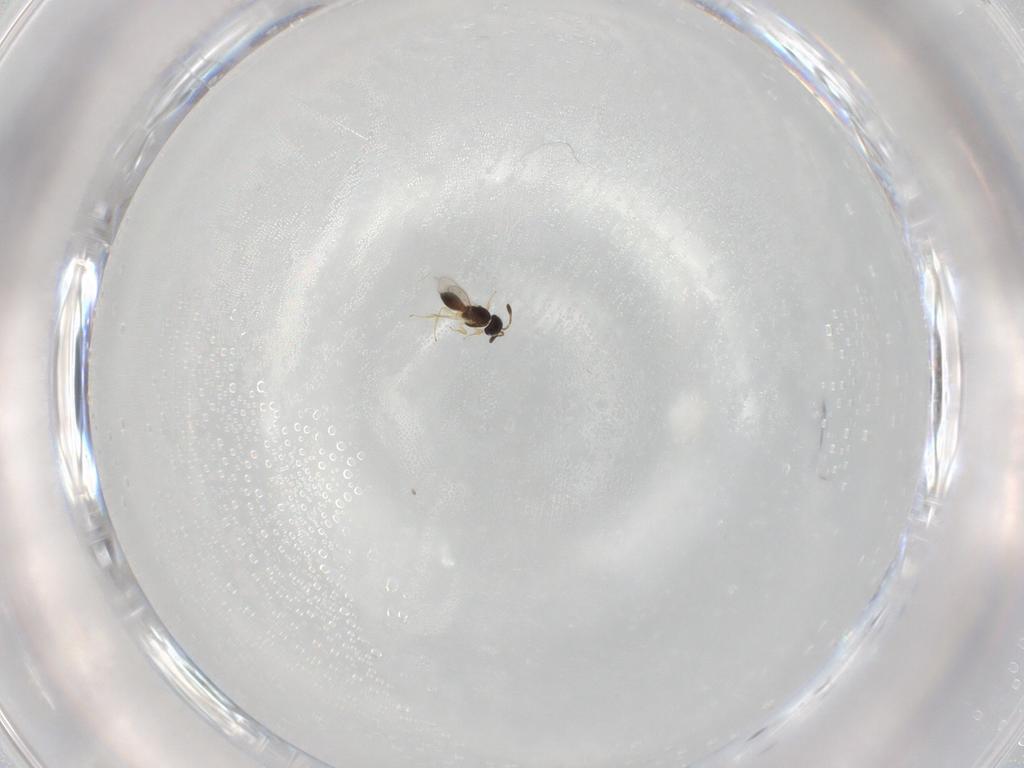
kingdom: Animalia
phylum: Arthropoda
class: Insecta
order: Hymenoptera
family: Scelionidae
